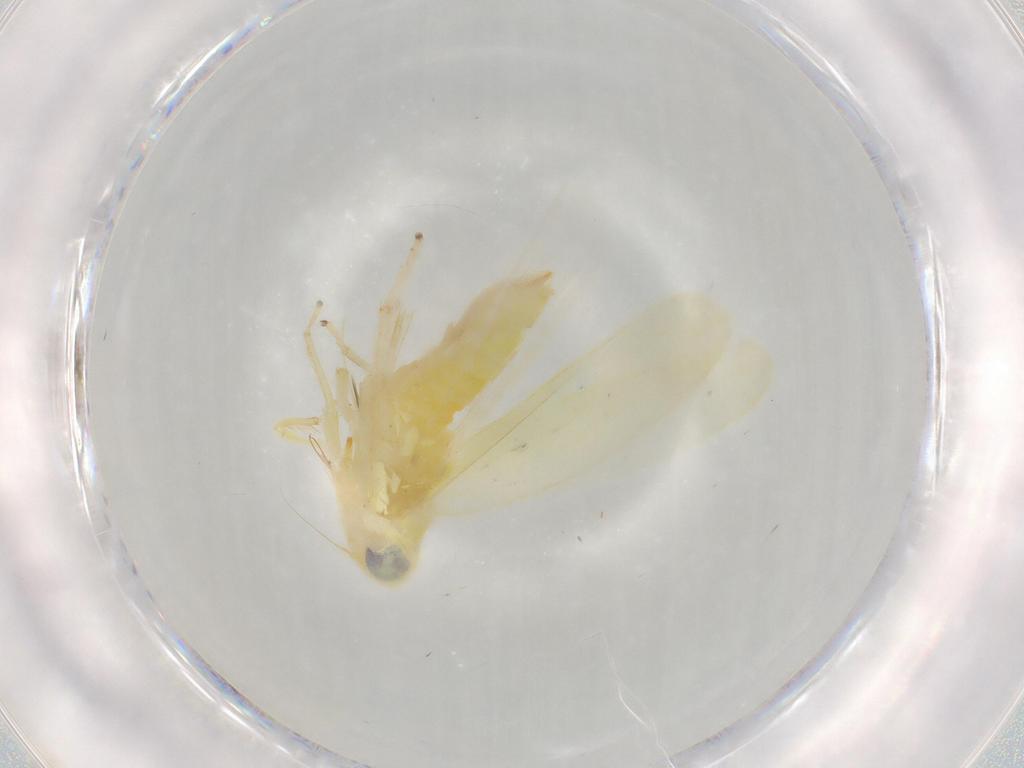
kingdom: Animalia
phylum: Arthropoda
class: Insecta
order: Hemiptera
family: Cicadellidae
